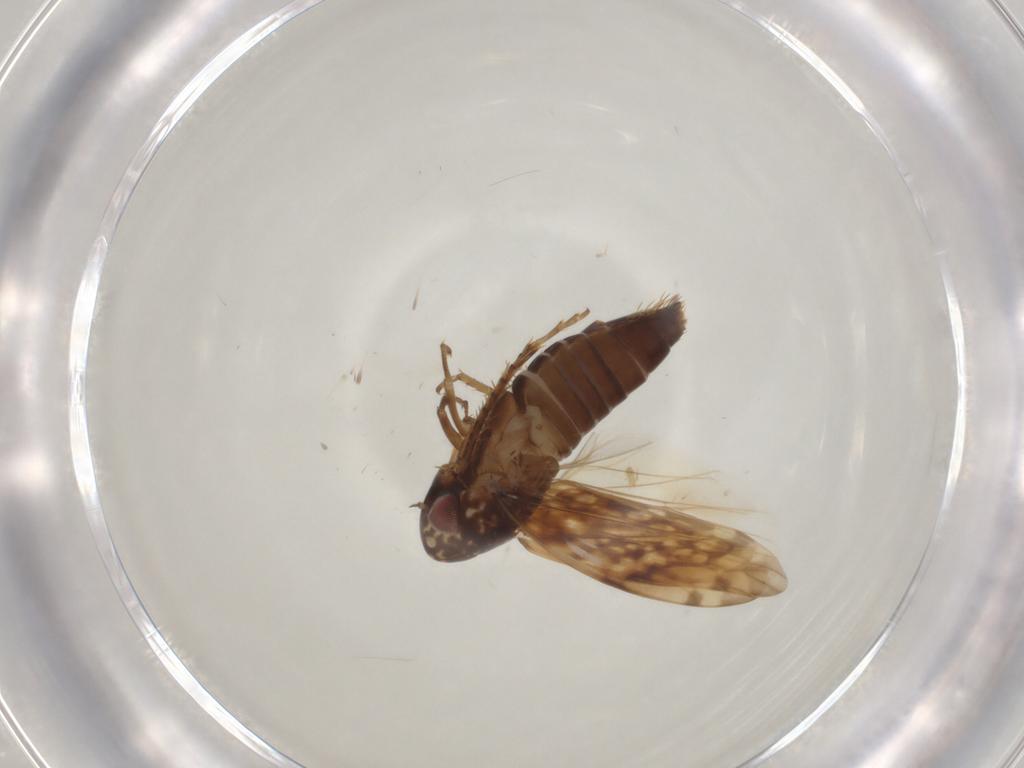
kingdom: Animalia
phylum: Arthropoda
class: Insecta
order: Hemiptera
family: Cicadellidae
